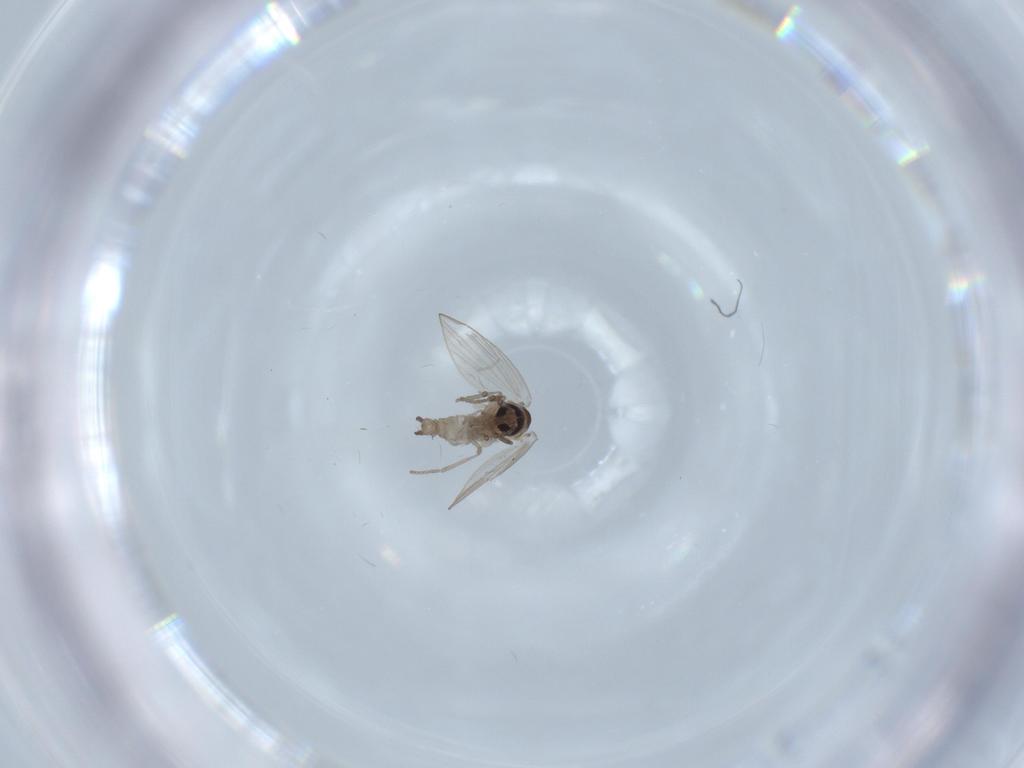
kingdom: Animalia
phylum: Arthropoda
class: Insecta
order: Diptera
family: Psychodidae
